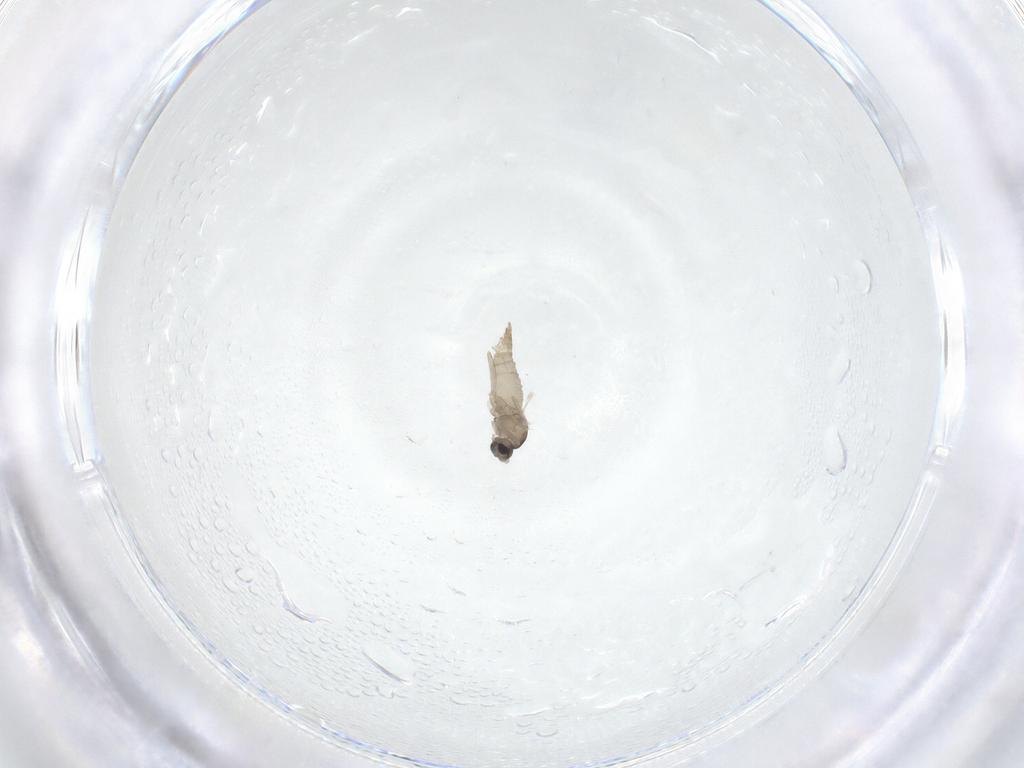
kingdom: Animalia
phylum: Arthropoda
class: Insecta
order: Diptera
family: Cecidomyiidae
